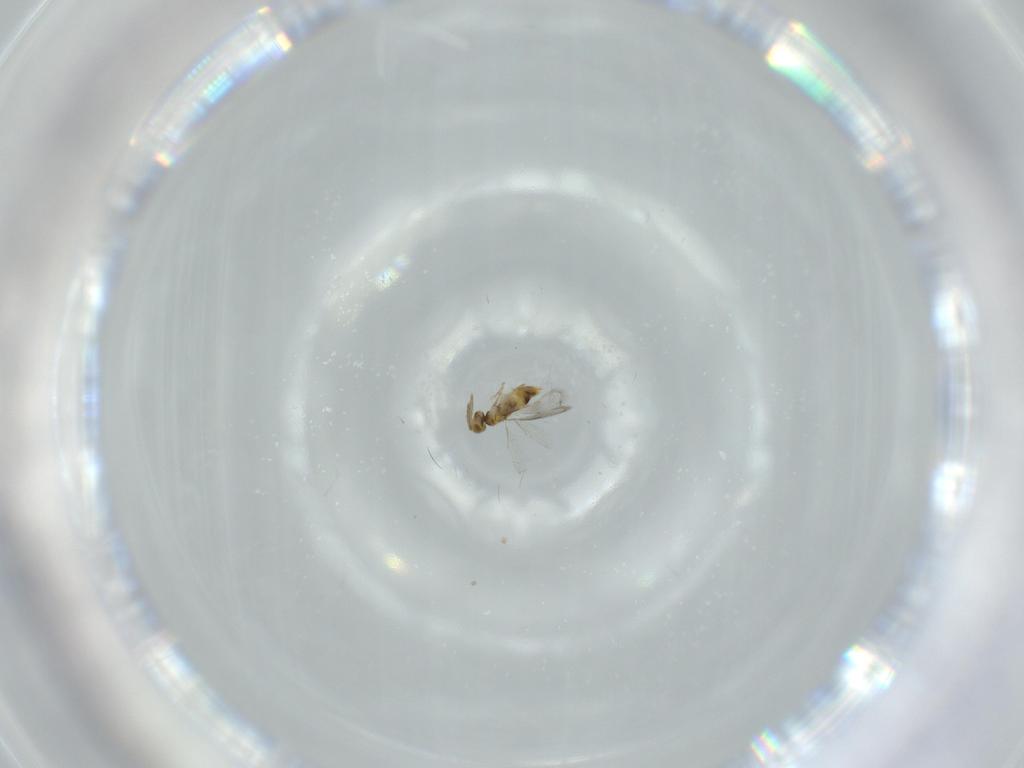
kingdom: Animalia
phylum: Arthropoda
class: Insecta
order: Hymenoptera
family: Aphelinidae
